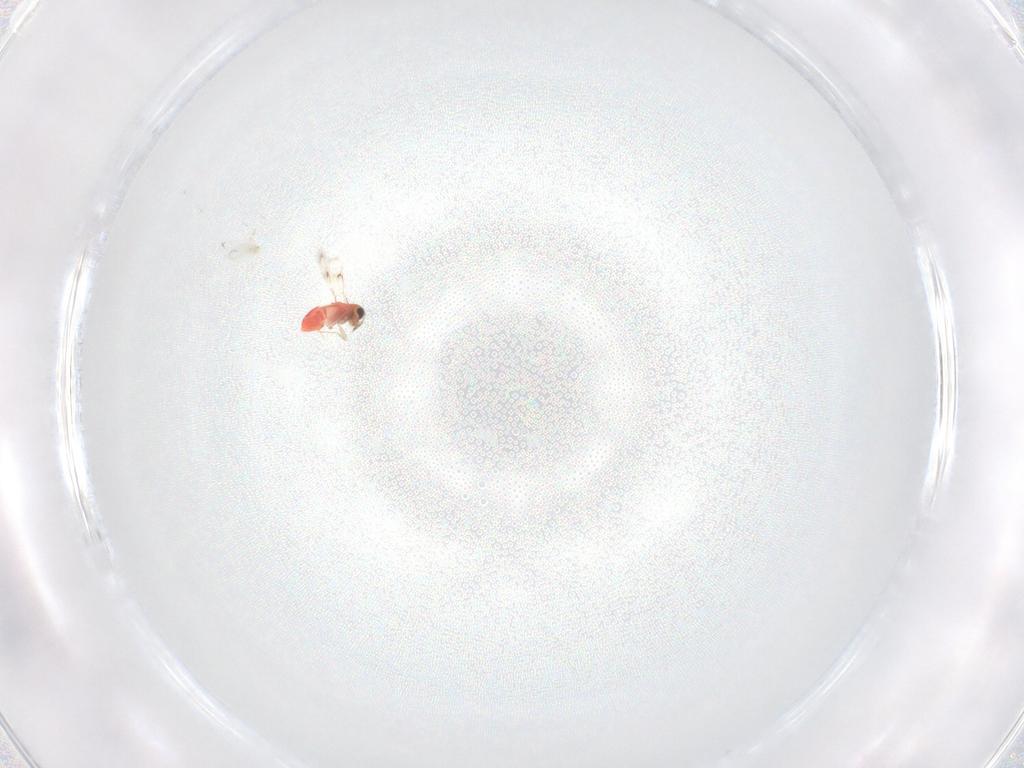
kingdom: Animalia
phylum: Arthropoda
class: Insecta
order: Hymenoptera
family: Trichogrammatidae
